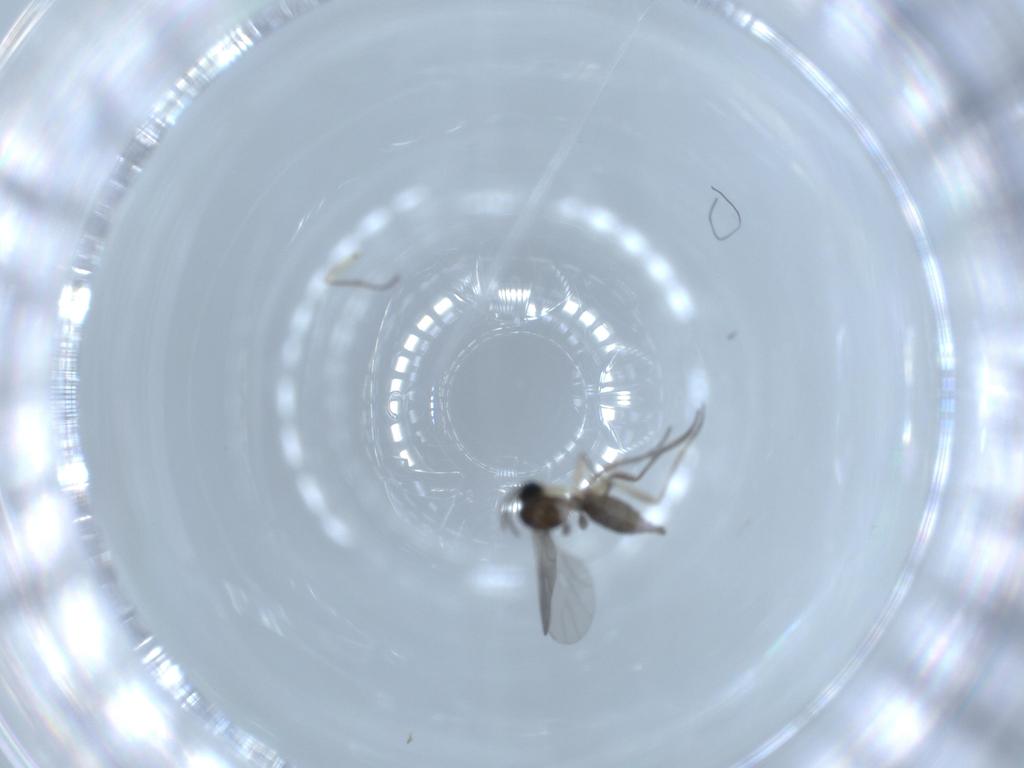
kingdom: Animalia
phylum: Arthropoda
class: Insecta
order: Diptera
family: Sciaridae
